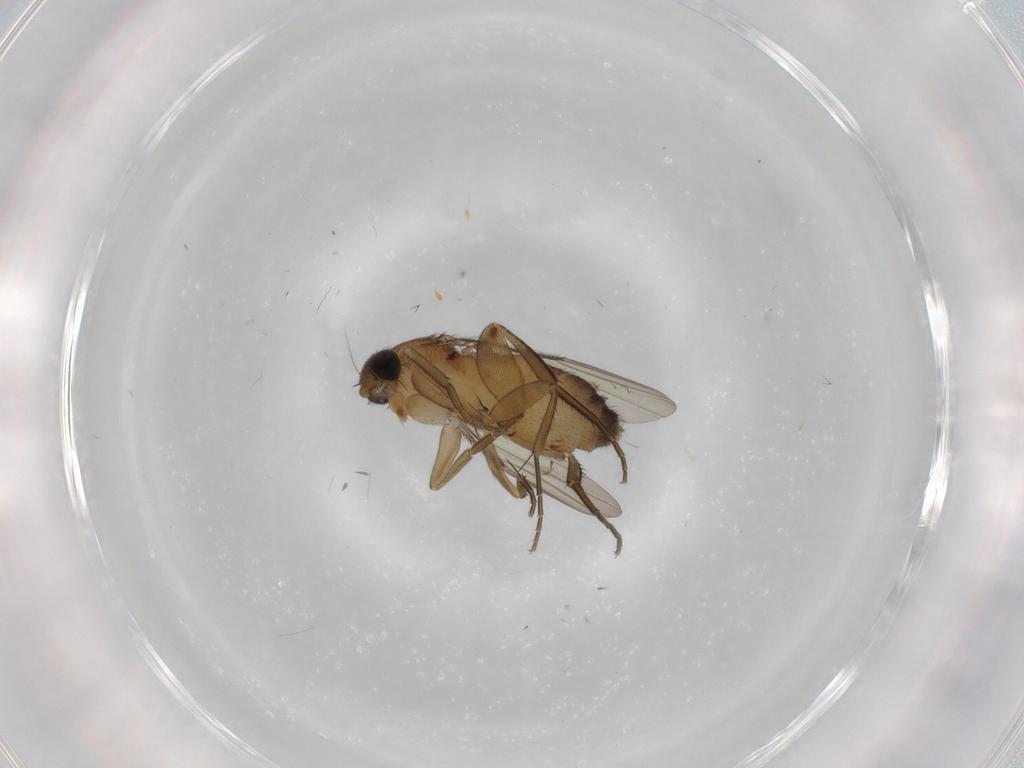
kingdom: Animalia
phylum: Arthropoda
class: Insecta
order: Diptera
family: Phoridae
